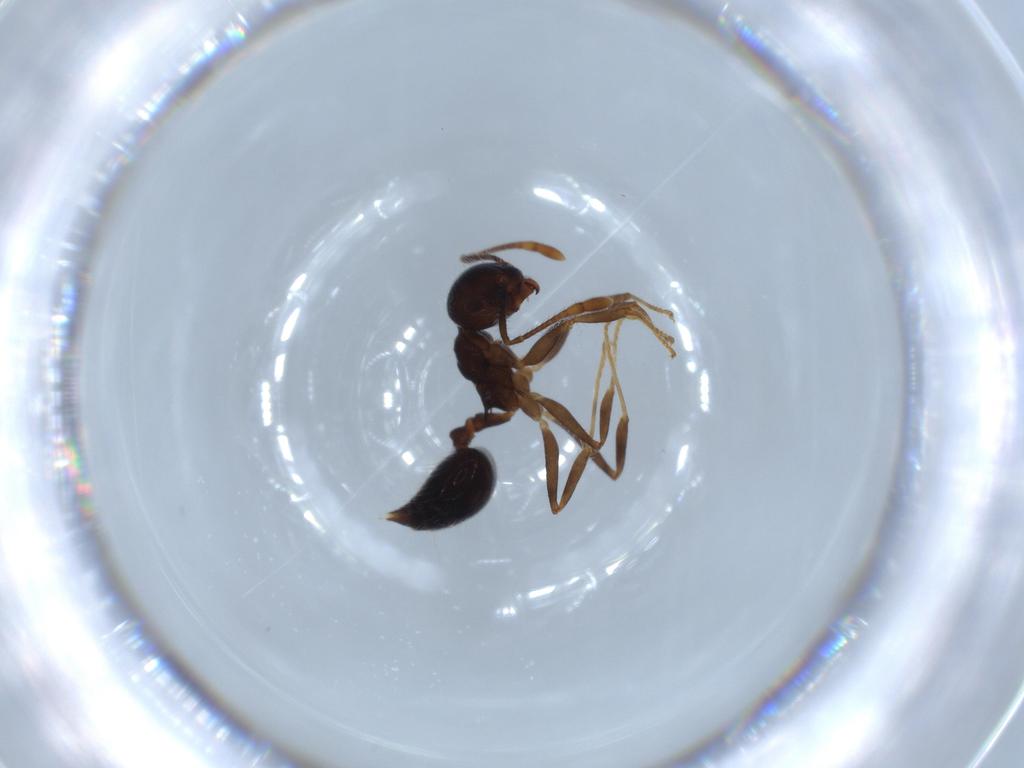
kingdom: Animalia
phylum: Arthropoda
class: Insecta
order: Hymenoptera
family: Formicidae
